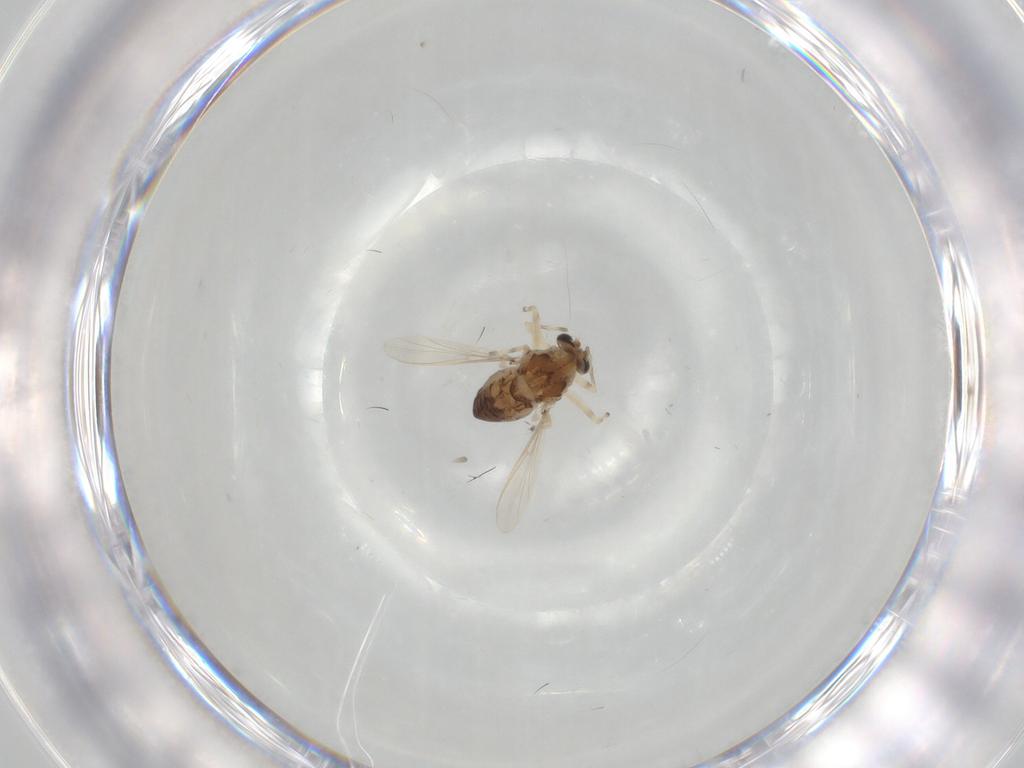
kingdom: Animalia
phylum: Arthropoda
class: Insecta
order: Diptera
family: Chironomidae
